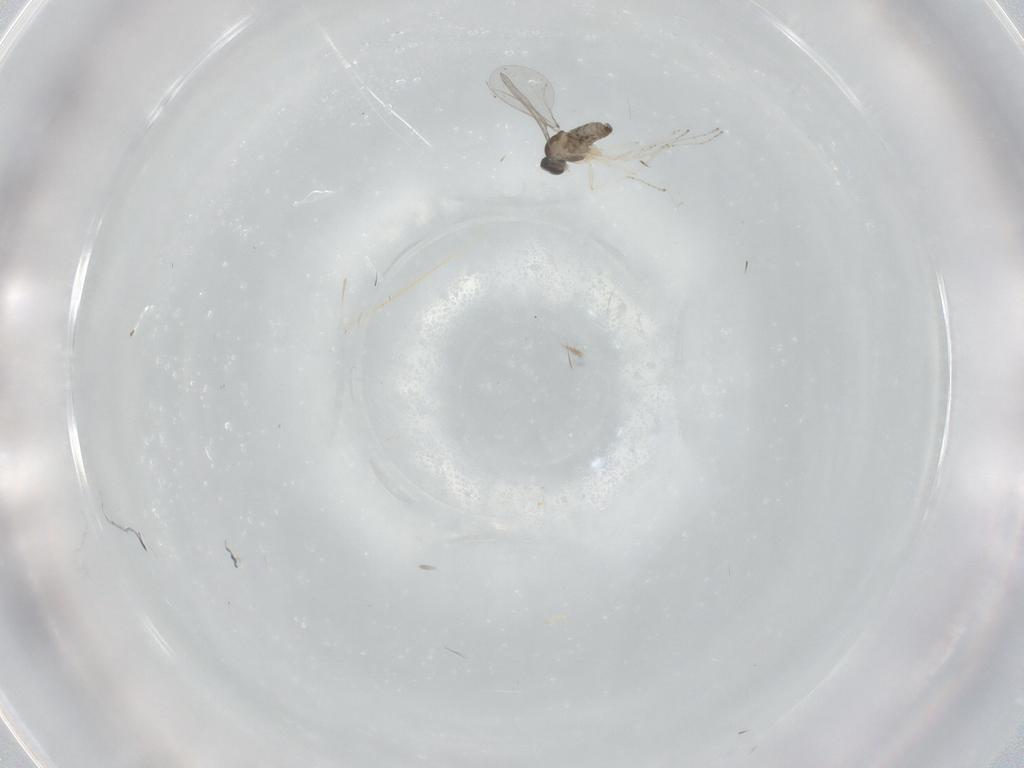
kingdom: Animalia
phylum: Arthropoda
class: Insecta
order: Diptera
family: Cecidomyiidae
